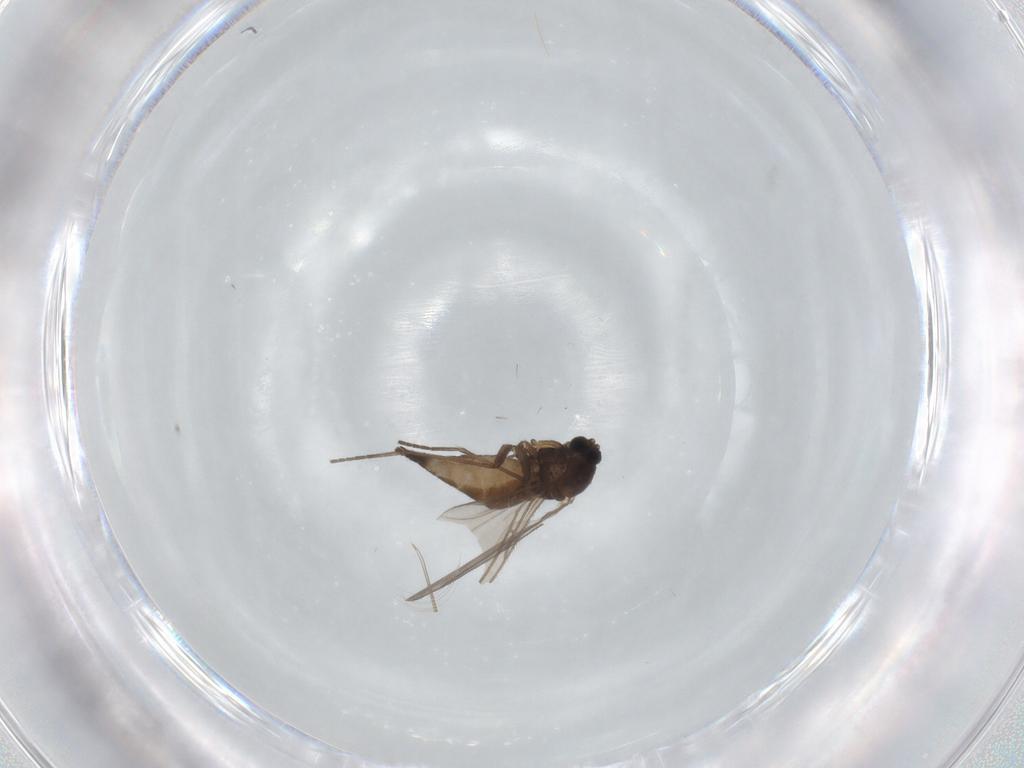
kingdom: Animalia
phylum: Arthropoda
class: Insecta
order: Diptera
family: Sciaridae
